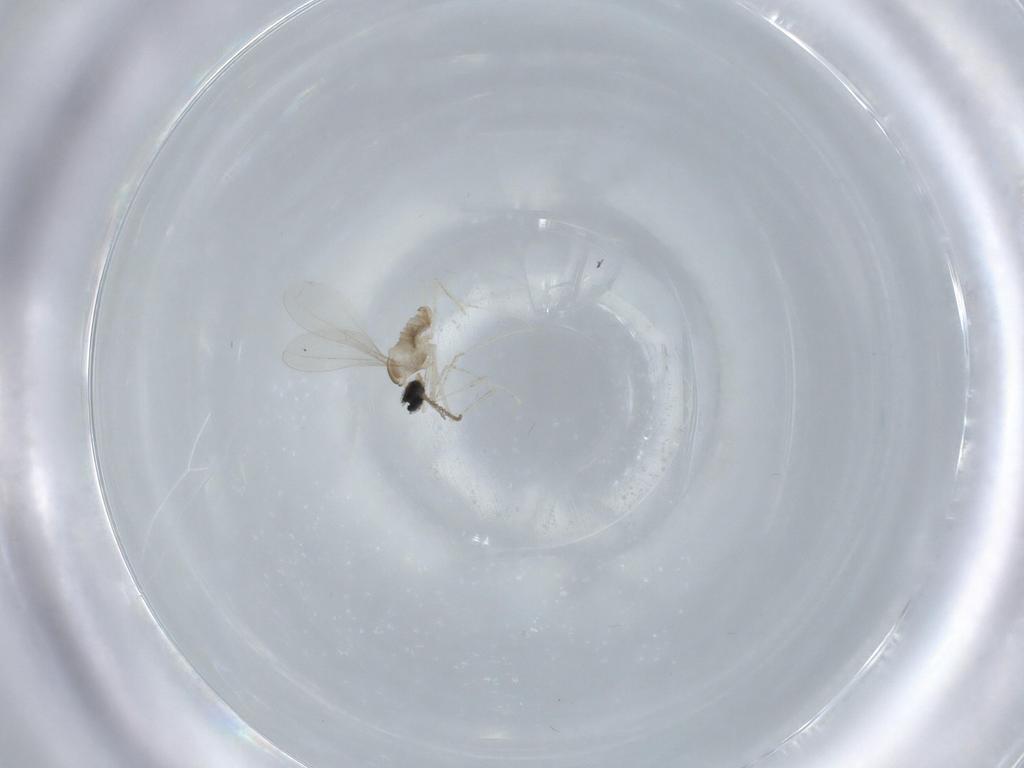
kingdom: Animalia
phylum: Arthropoda
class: Insecta
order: Diptera
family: Cecidomyiidae
